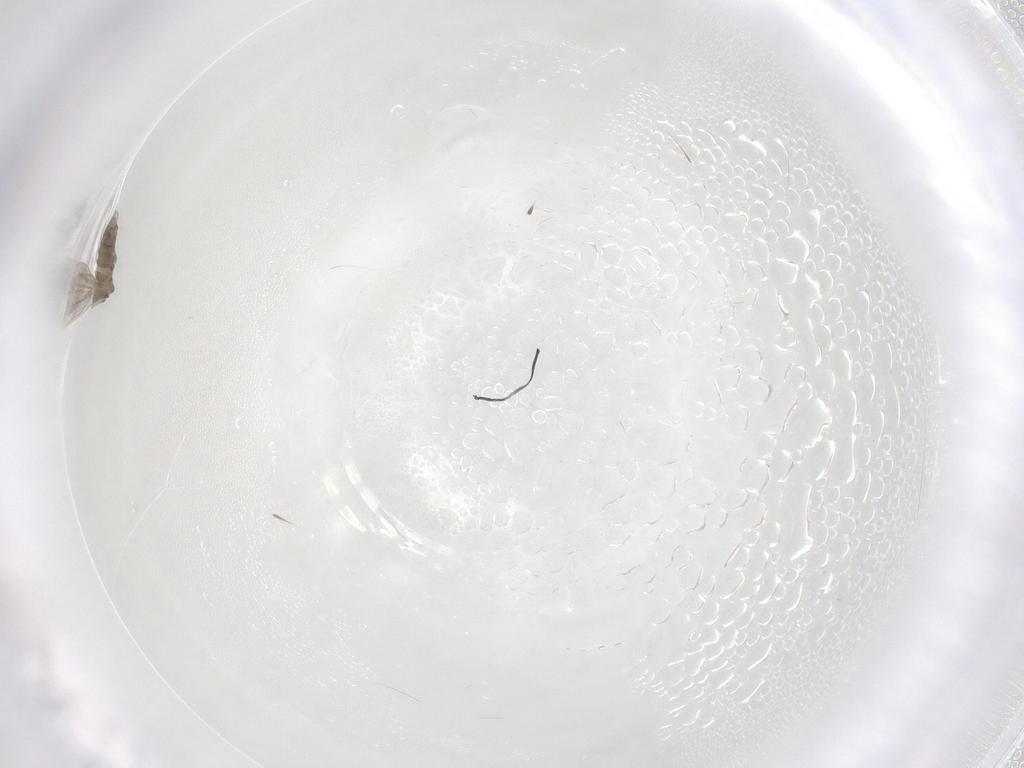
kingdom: Animalia
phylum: Arthropoda
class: Insecta
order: Diptera
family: Psychodidae
